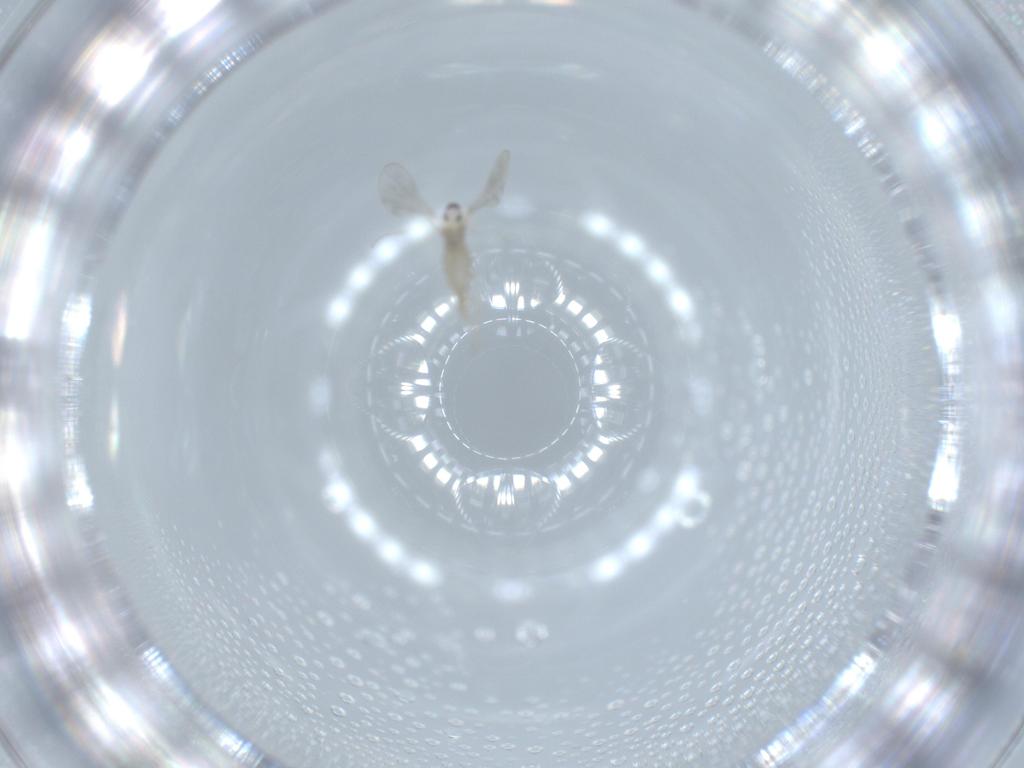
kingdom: Animalia
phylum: Arthropoda
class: Insecta
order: Diptera
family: Cecidomyiidae
